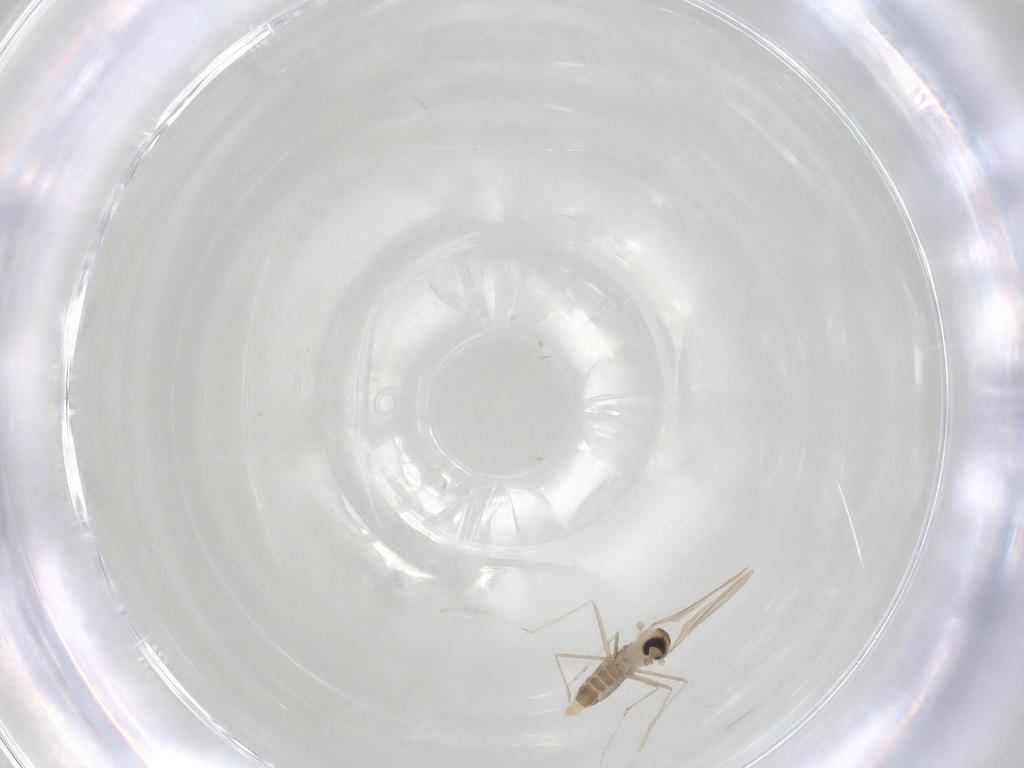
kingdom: Animalia
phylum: Arthropoda
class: Insecta
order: Diptera
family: Cecidomyiidae
